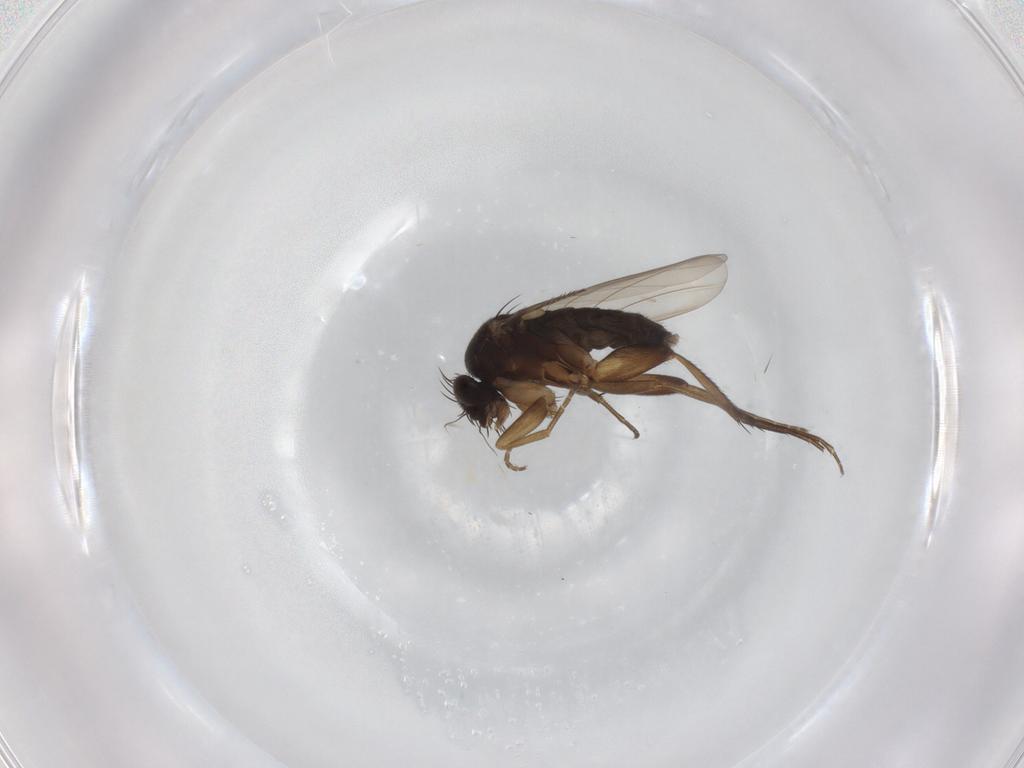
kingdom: Animalia
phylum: Arthropoda
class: Insecta
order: Diptera
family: Phoridae
